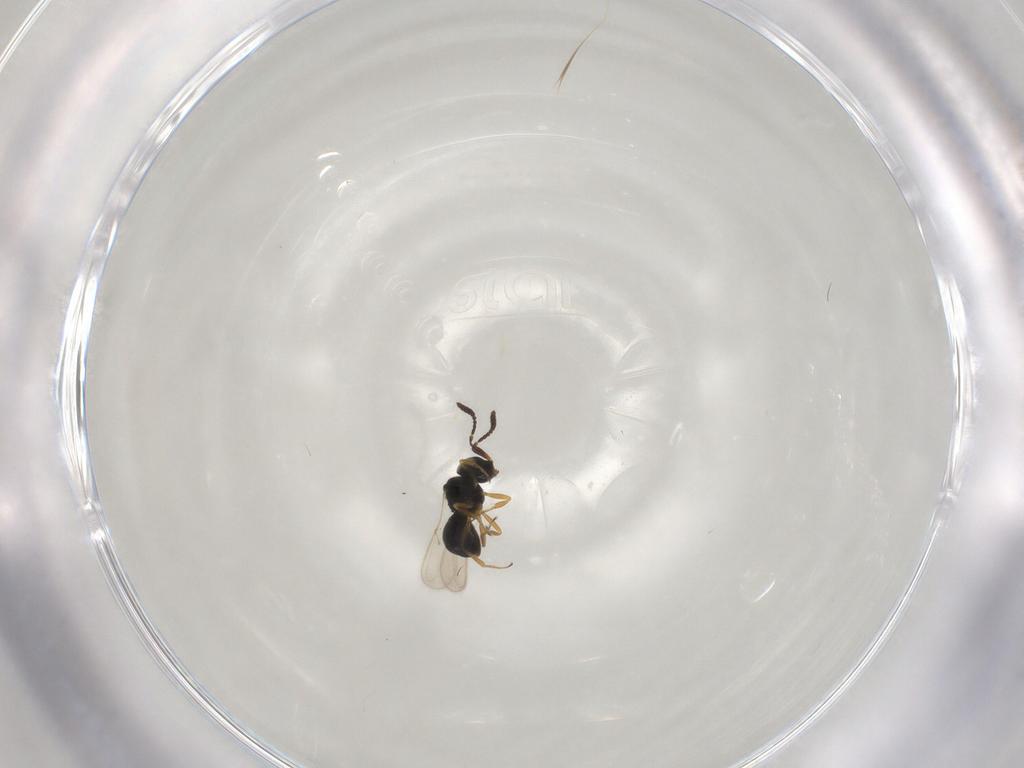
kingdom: Animalia
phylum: Arthropoda
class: Insecta
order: Hymenoptera
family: Scelionidae
